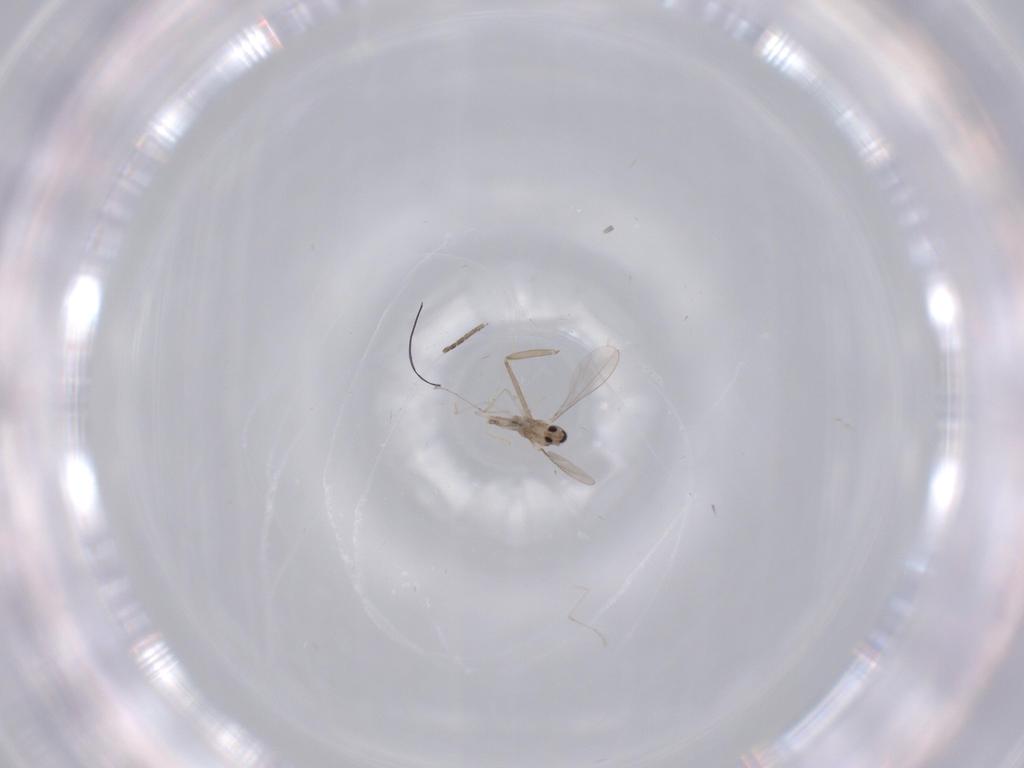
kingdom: Animalia
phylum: Arthropoda
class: Insecta
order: Diptera
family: Cecidomyiidae
